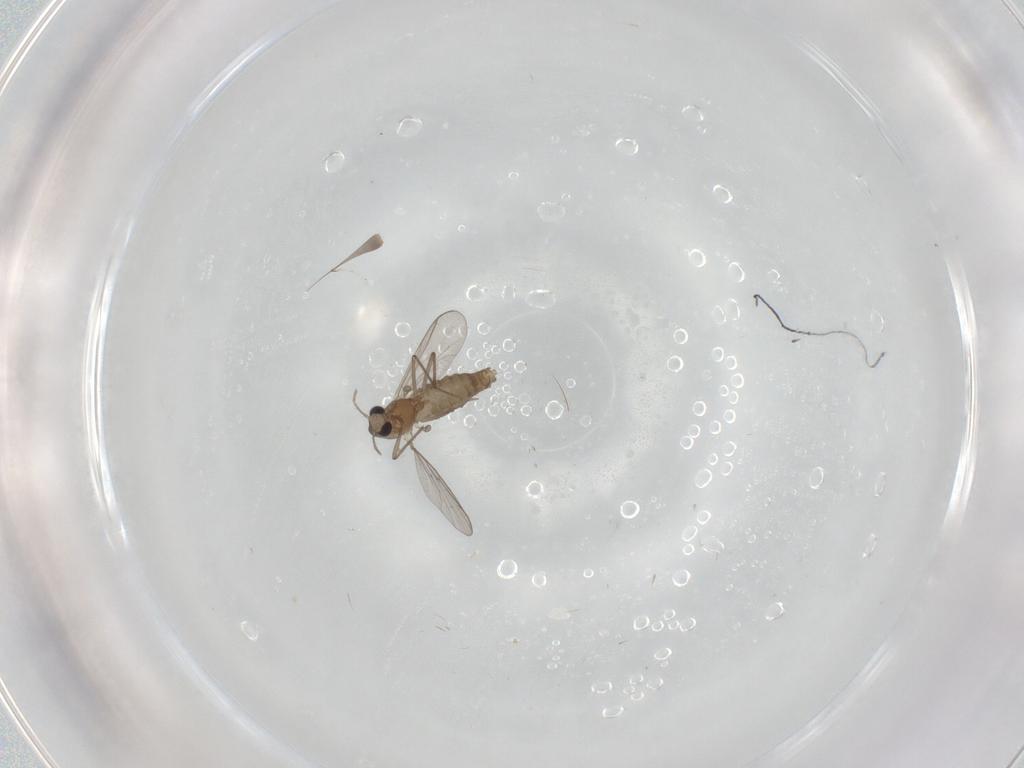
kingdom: Animalia
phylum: Arthropoda
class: Insecta
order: Diptera
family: Chironomidae
